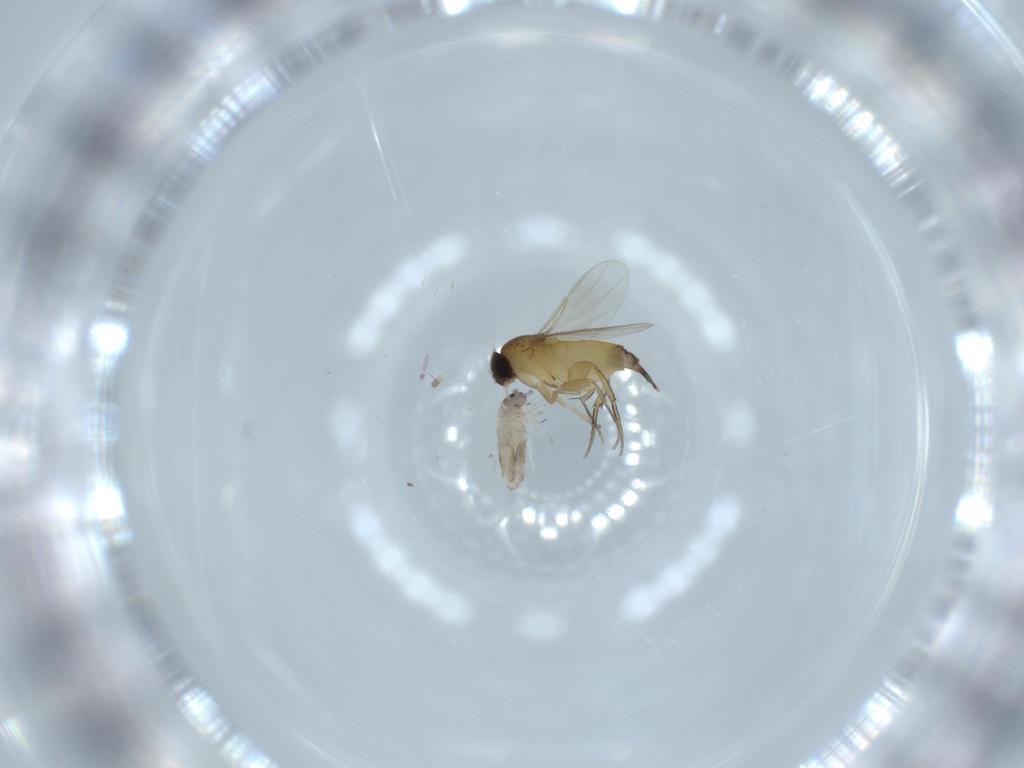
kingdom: Animalia
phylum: Arthropoda
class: Collembola
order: Entomobryomorpha
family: Entomobryidae
